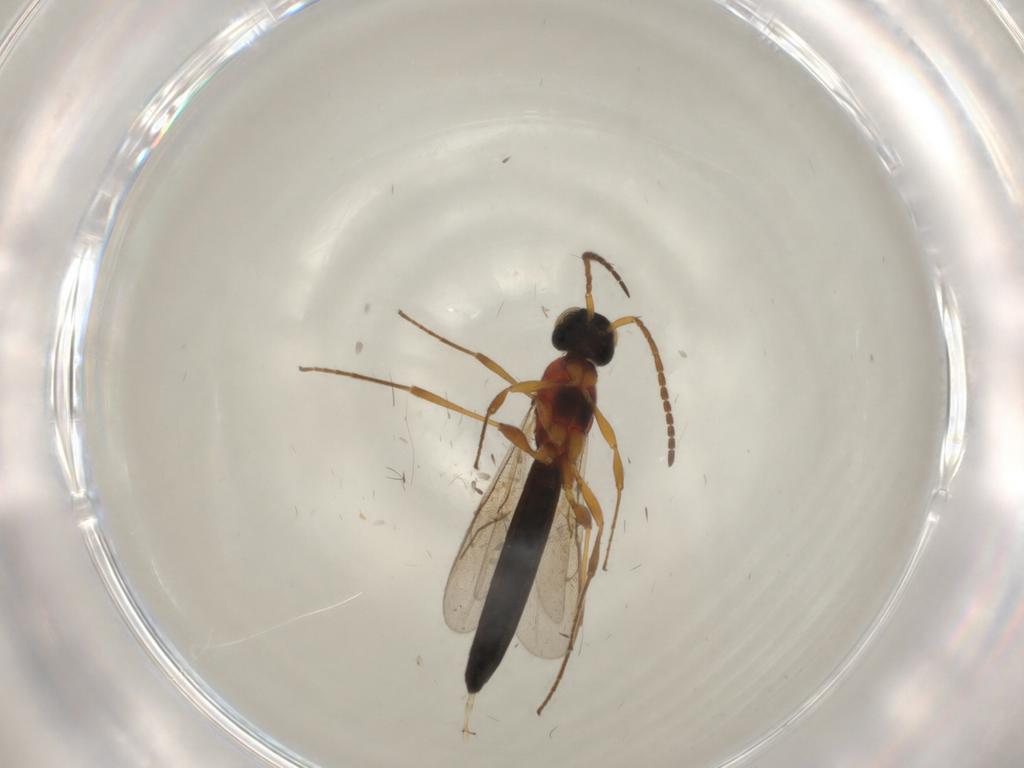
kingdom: Animalia
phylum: Arthropoda
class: Insecta
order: Hymenoptera
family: Scelionidae
